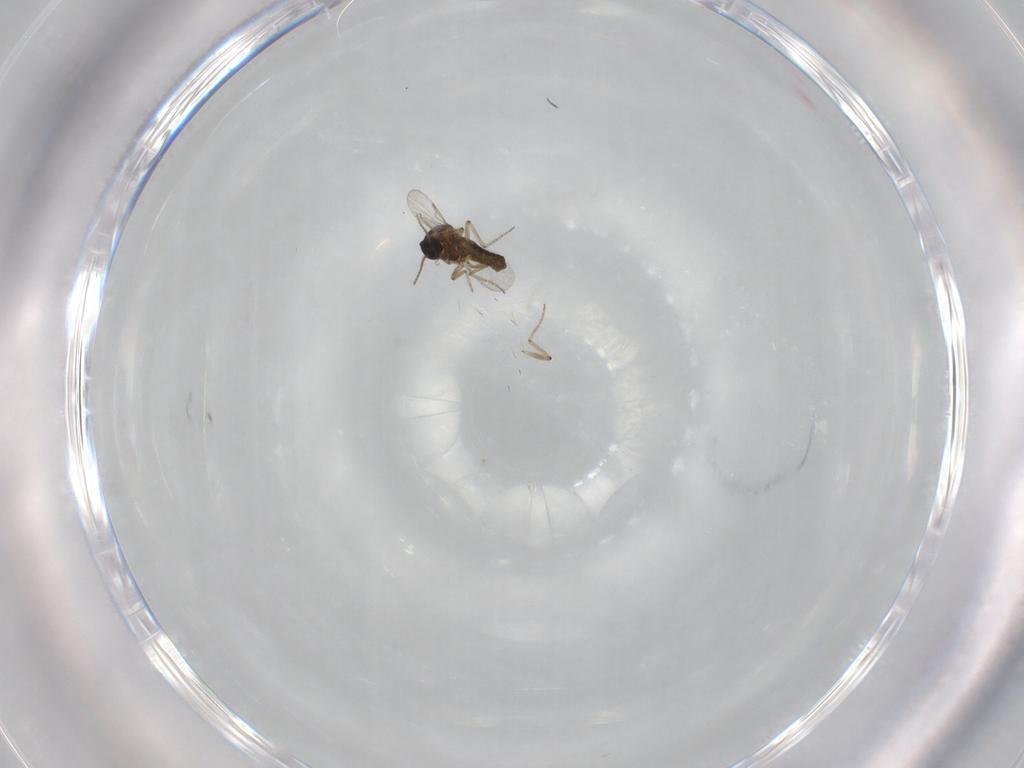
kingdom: Animalia
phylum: Arthropoda
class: Insecta
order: Diptera
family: Ceratopogonidae
